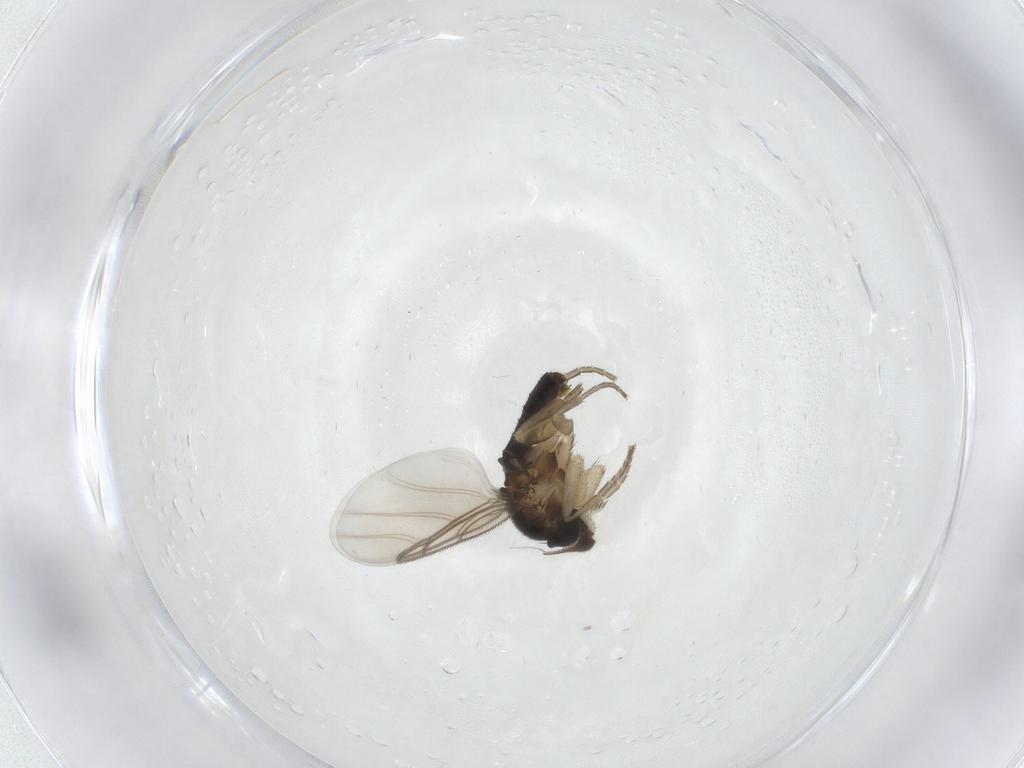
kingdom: Animalia
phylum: Arthropoda
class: Insecta
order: Diptera
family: Phoridae
